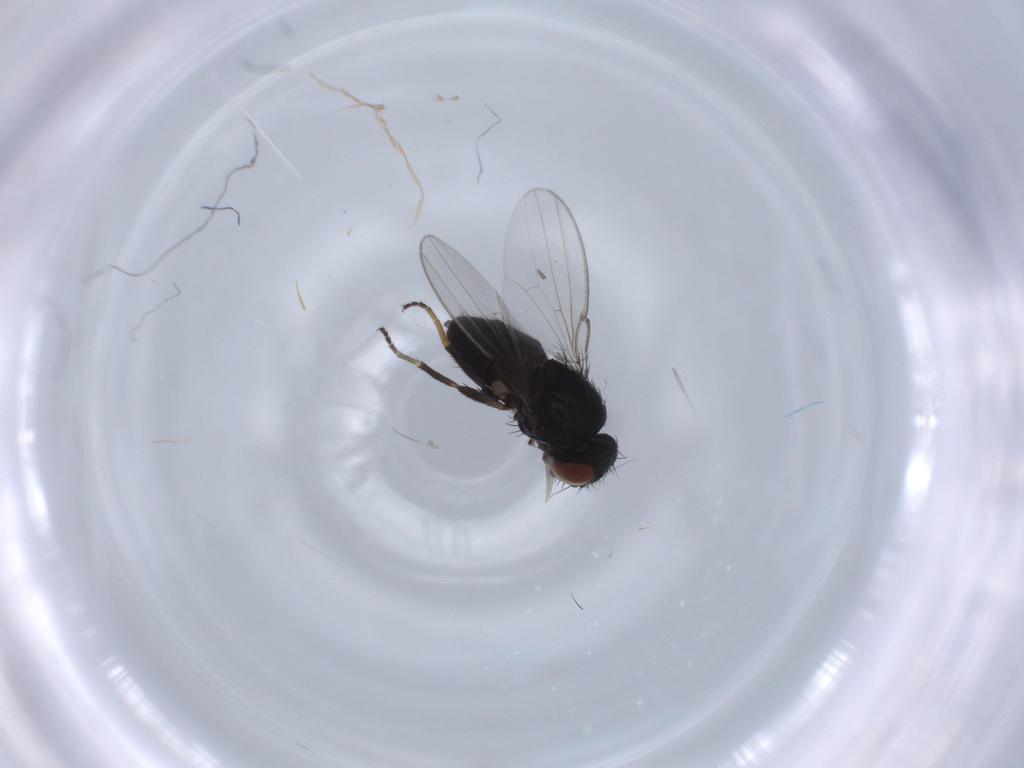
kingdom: Animalia
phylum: Arthropoda
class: Insecta
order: Diptera
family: Milichiidae
